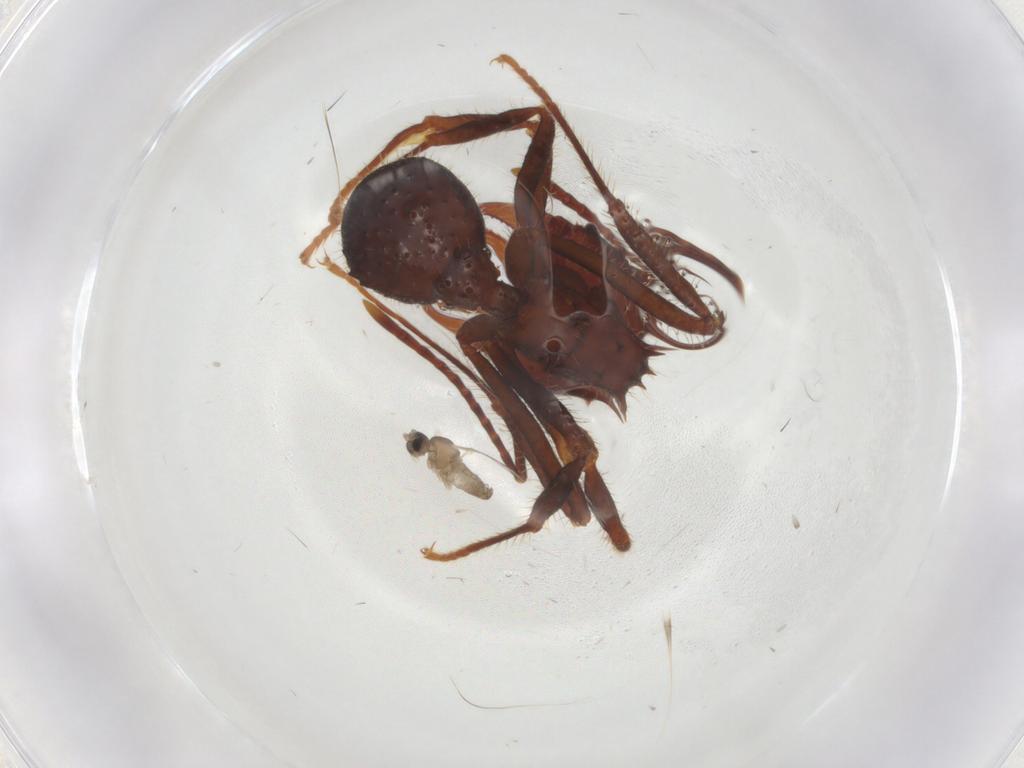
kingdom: Animalia
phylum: Arthropoda
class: Insecta
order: Diptera
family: Cecidomyiidae
